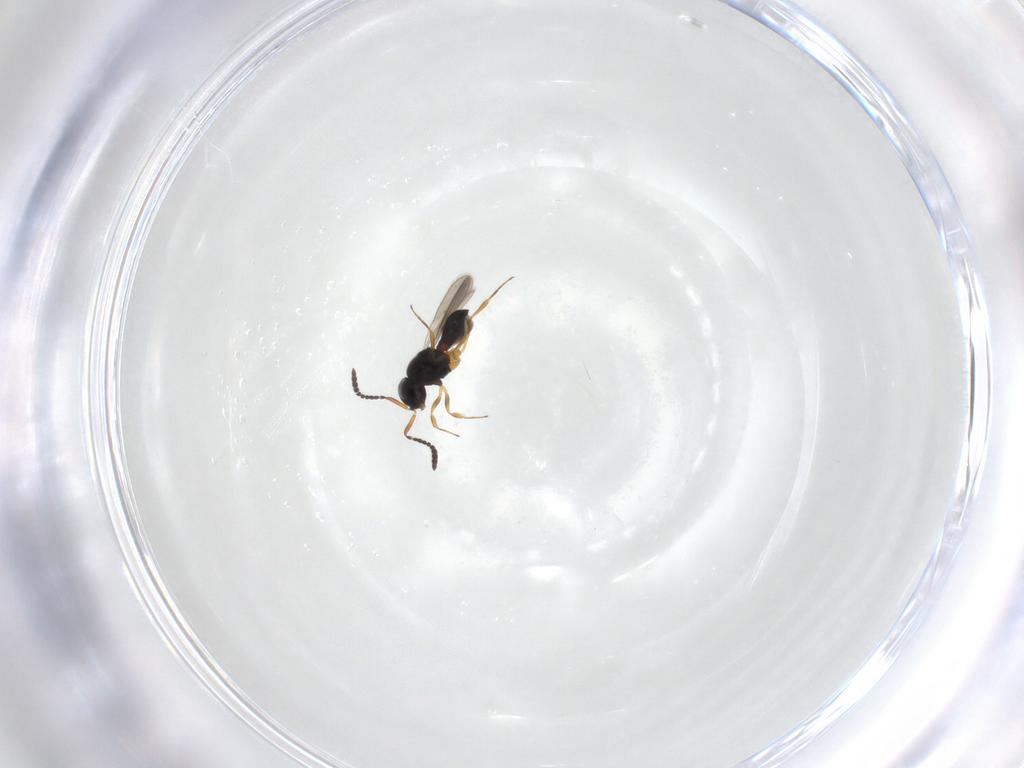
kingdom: Animalia
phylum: Arthropoda
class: Insecta
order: Hymenoptera
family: Scelionidae
